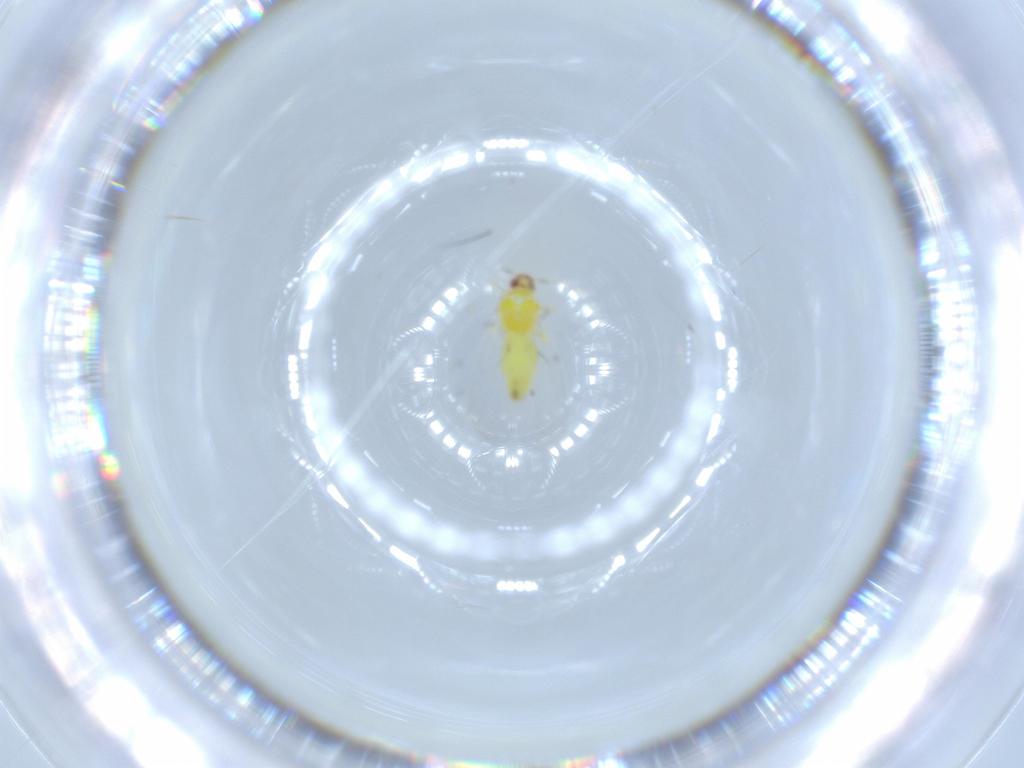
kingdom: Animalia
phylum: Arthropoda
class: Insecta
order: Hemiptera
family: Aleyrodidae
